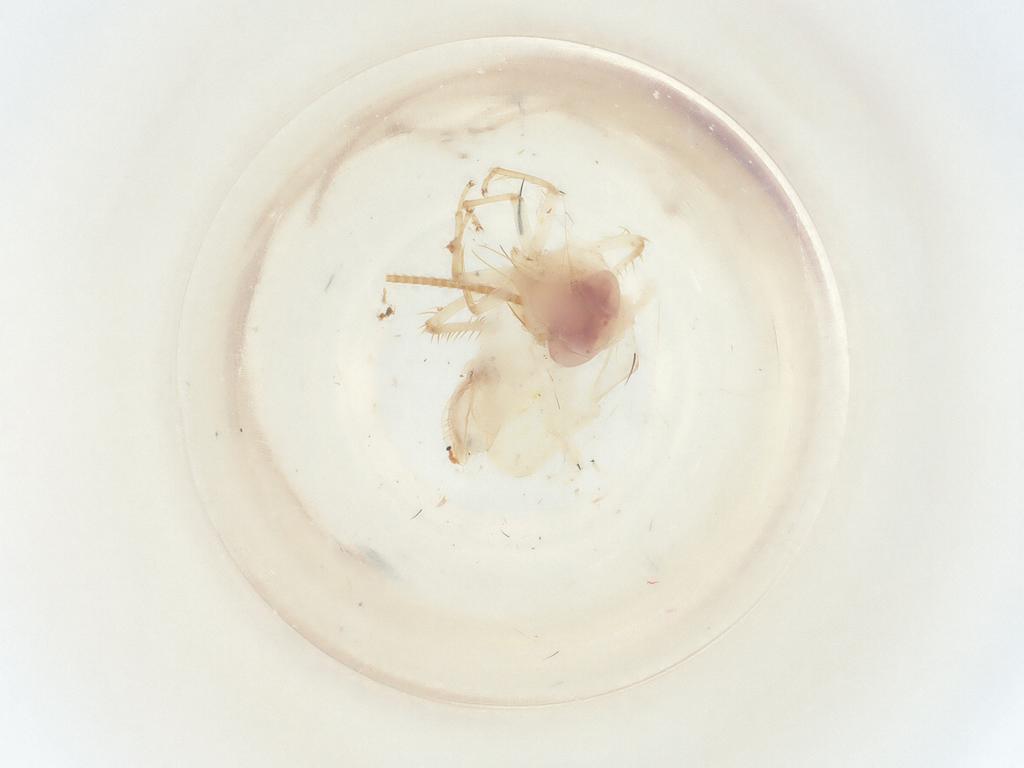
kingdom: Animalia
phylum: Arthropoda
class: Insecta
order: Hemiptera
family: Cicadellidae
